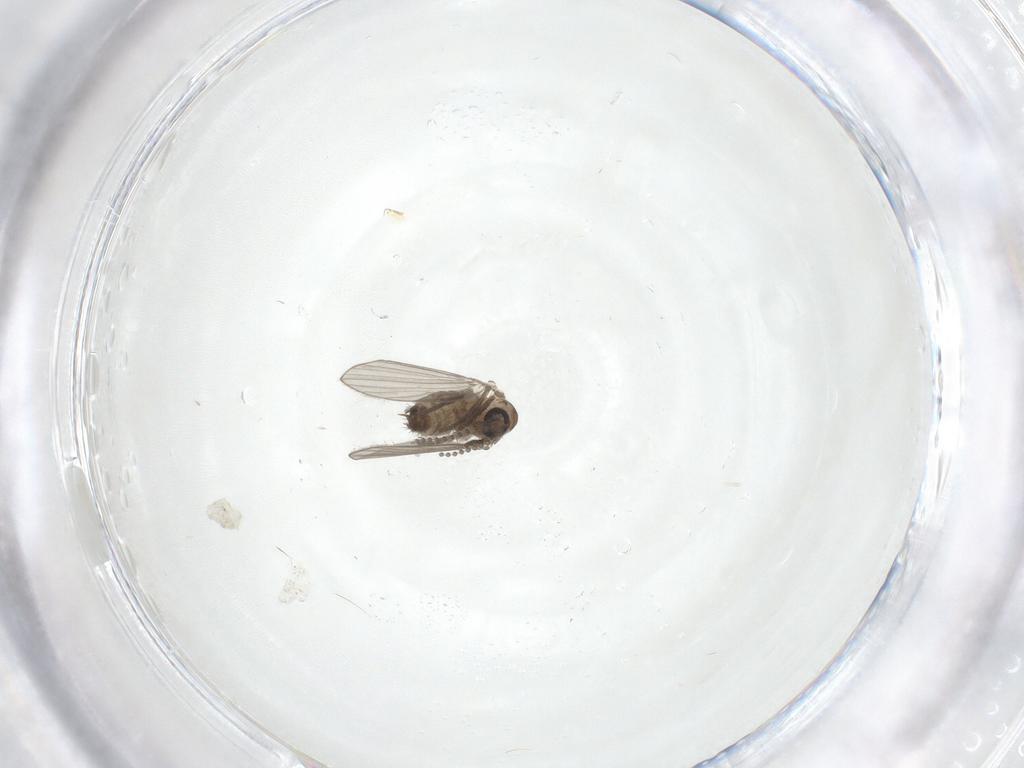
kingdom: Animalia
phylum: Arthropoda
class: Insecta
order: Diptera
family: Psychodidae
